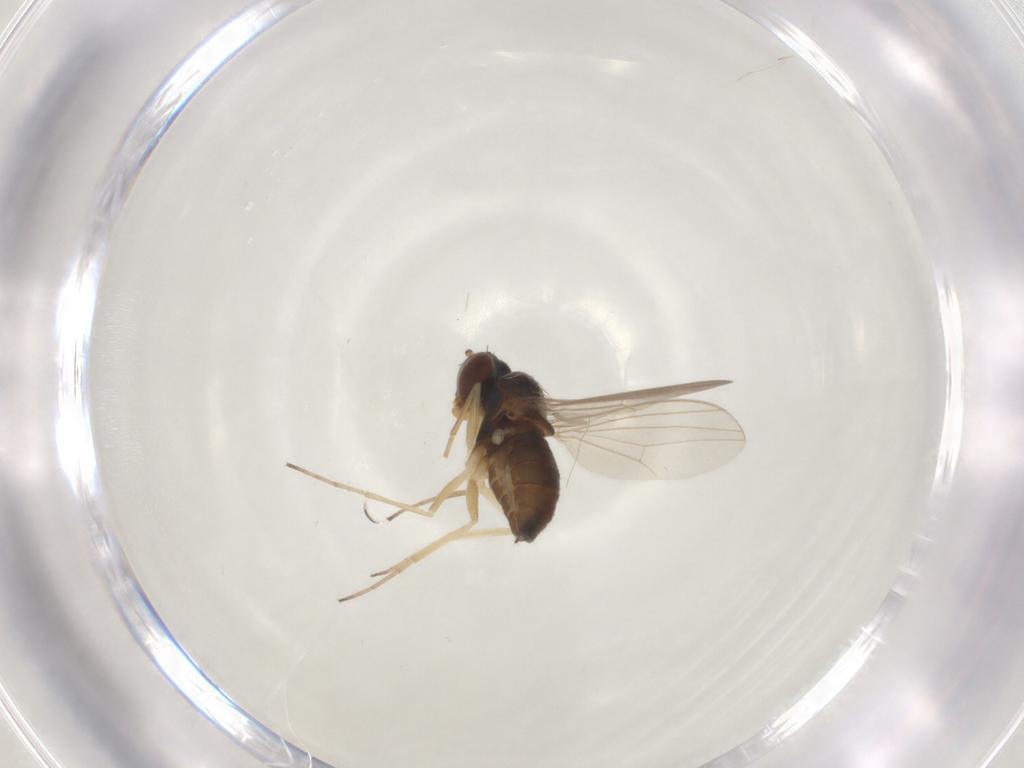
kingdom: Animalia
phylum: Arthropoda
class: Insecta
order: Diptera
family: Dolichopodidae
